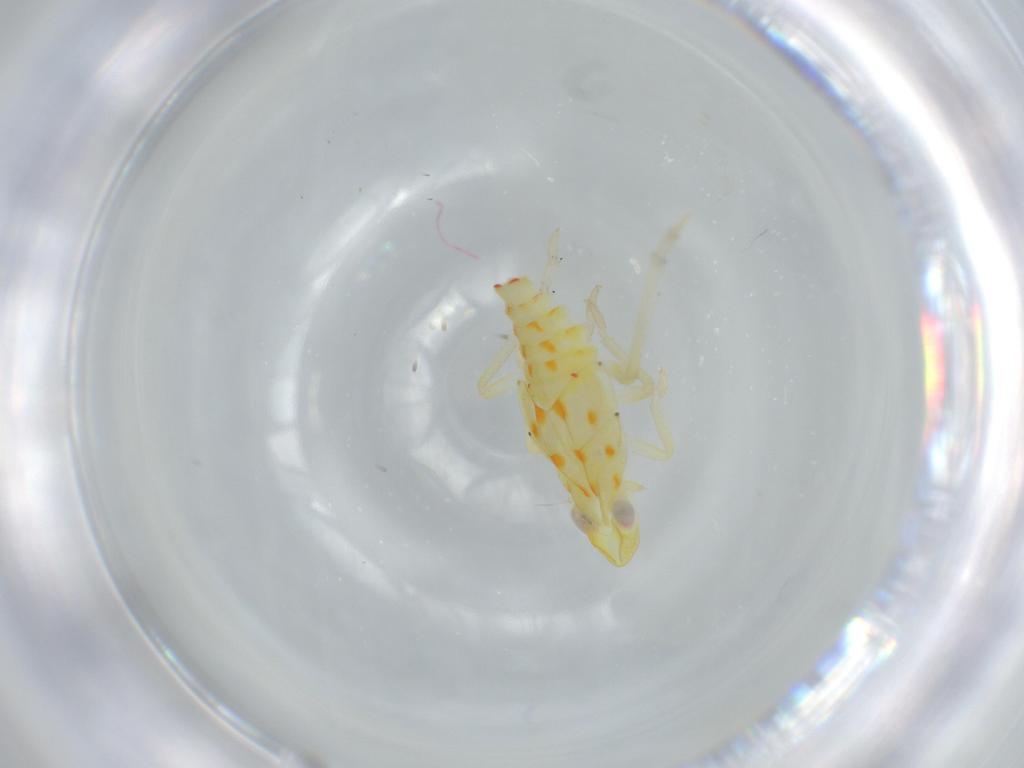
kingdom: Animalia
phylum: Arthropoda
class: Insecta
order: Hemiptera
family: Tropiduchidae
